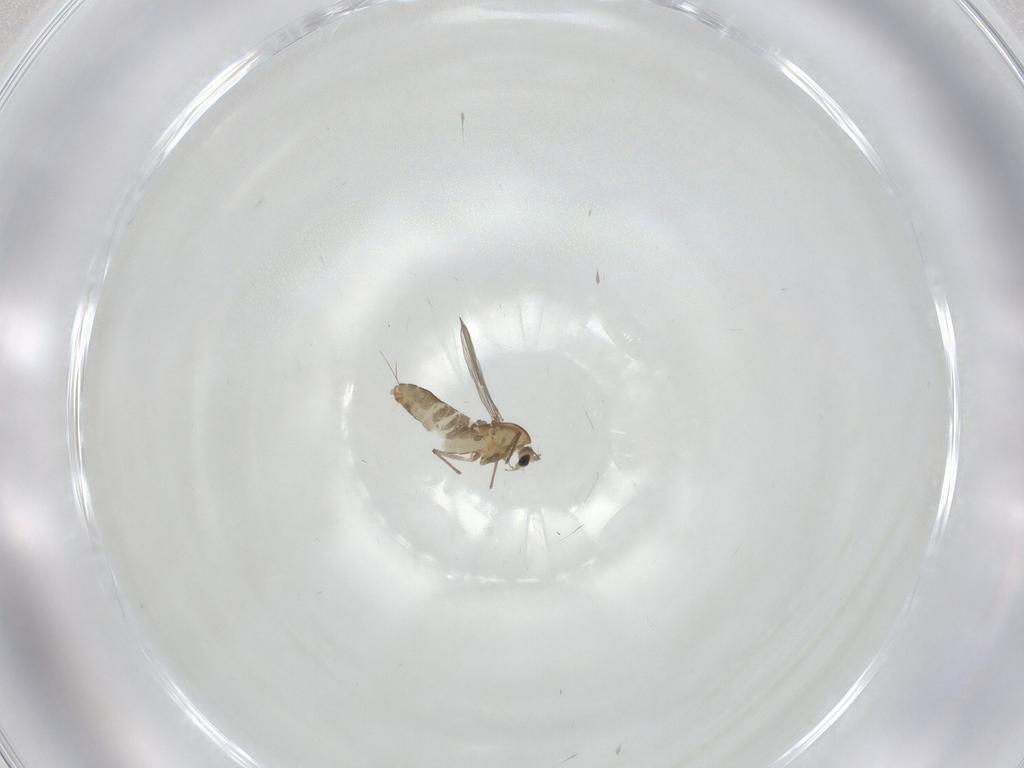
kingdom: Animalia
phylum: Arthropoda
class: Insecta
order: Diptera
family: Chironomidae
